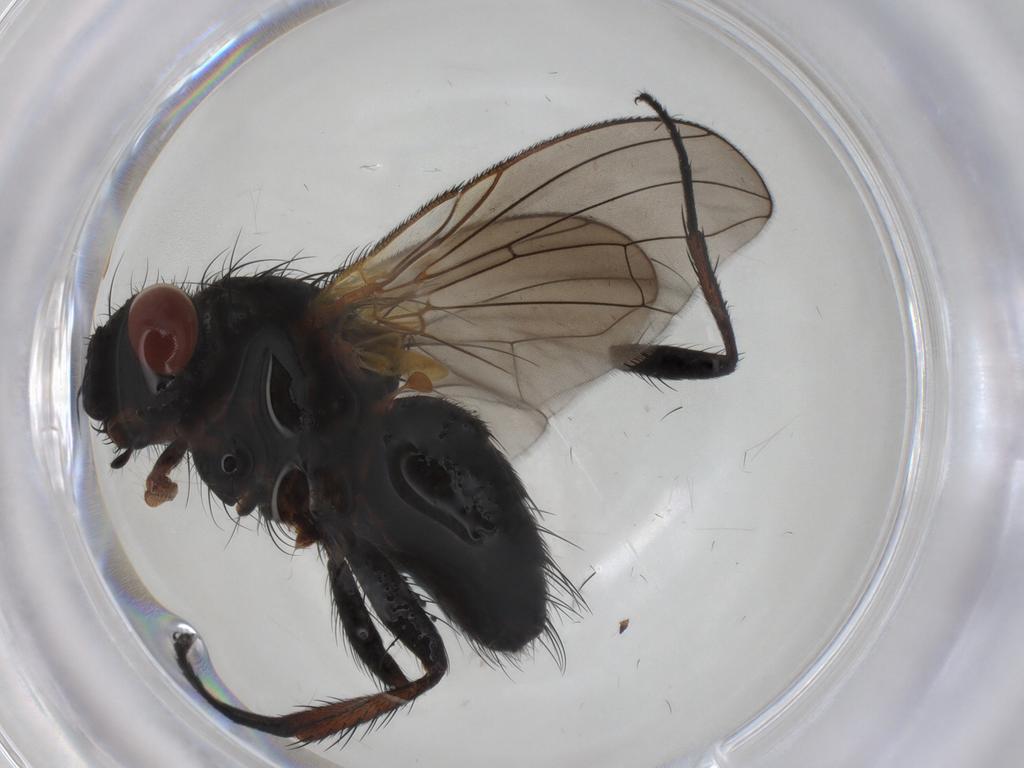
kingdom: Animalia
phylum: Arthropoda
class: Insecta
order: Diptera
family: Tachinidae
